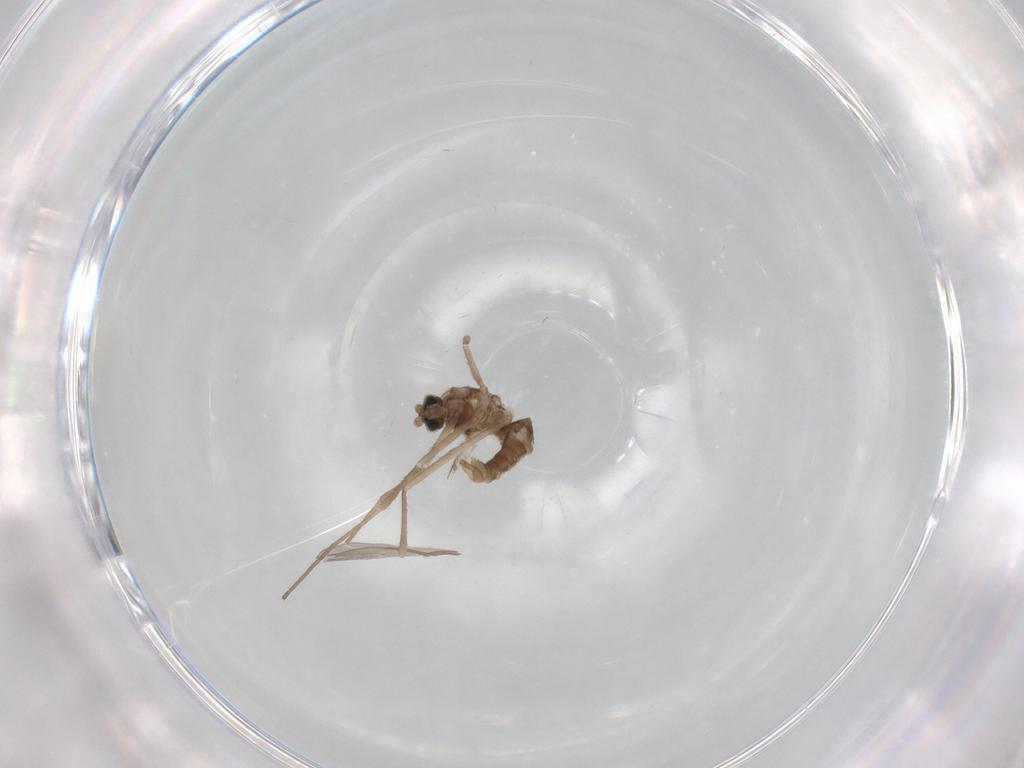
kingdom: Animalia
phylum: Arthropoda
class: Insecta
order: Diptera
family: Cecidomyiidae
